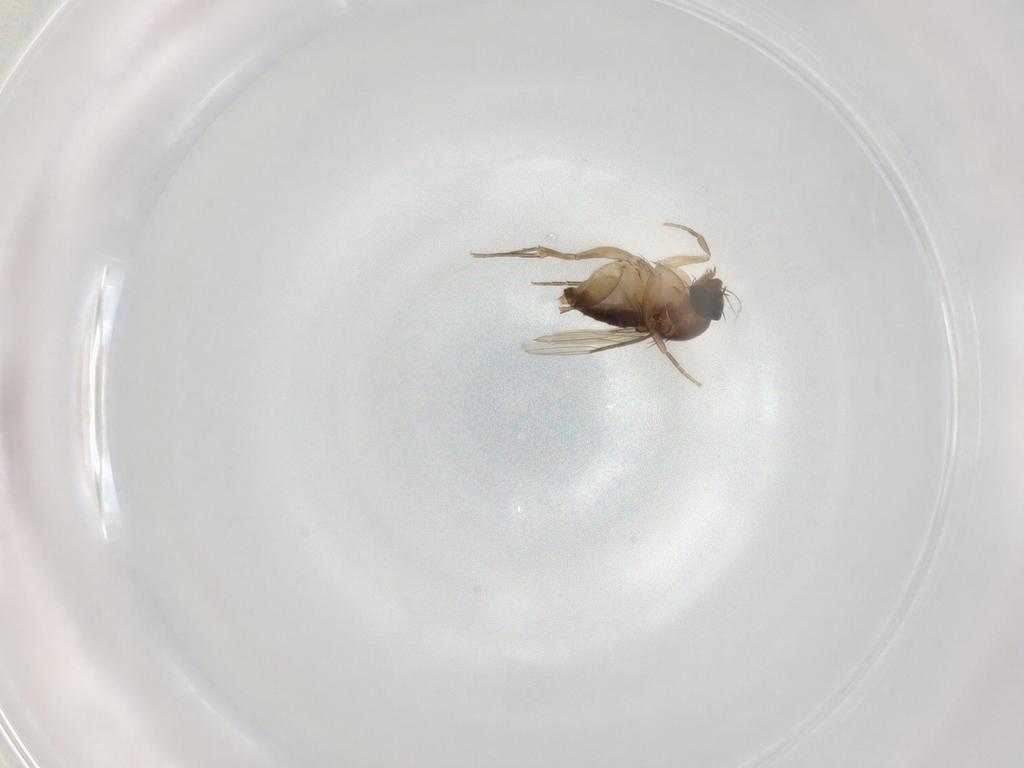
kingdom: Animalia
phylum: Arthropoda
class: Insecta
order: Diptera
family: Phoridae
